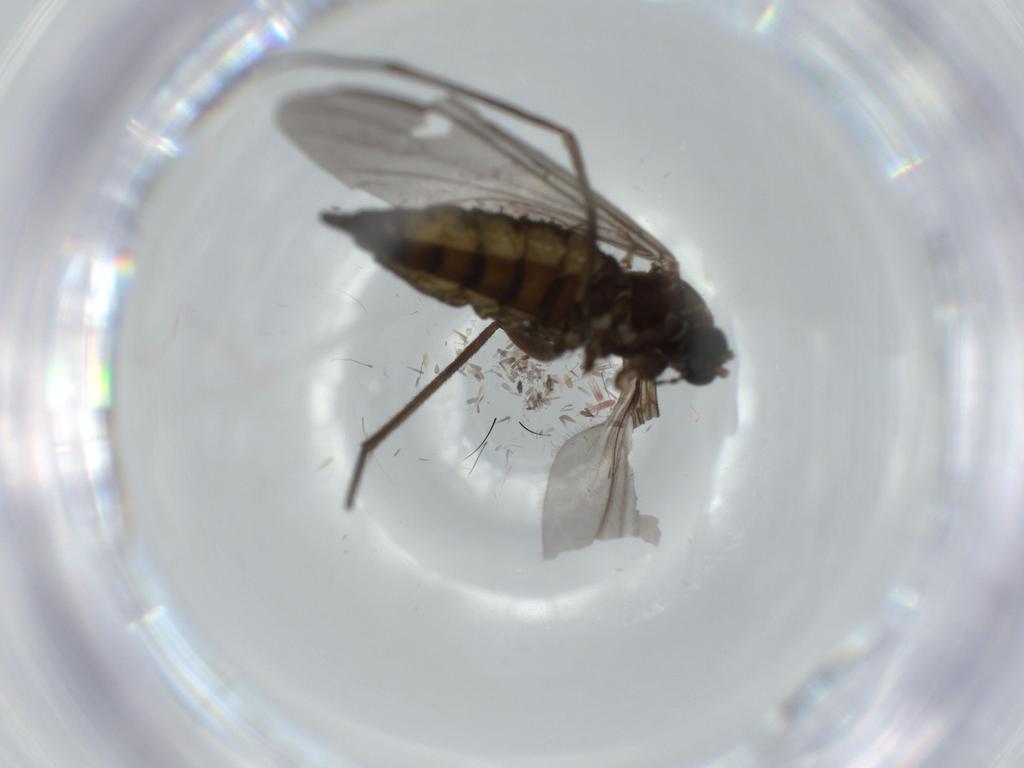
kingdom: Animalia
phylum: Arthropoda
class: Insecta
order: Diptera
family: Sciaridae
